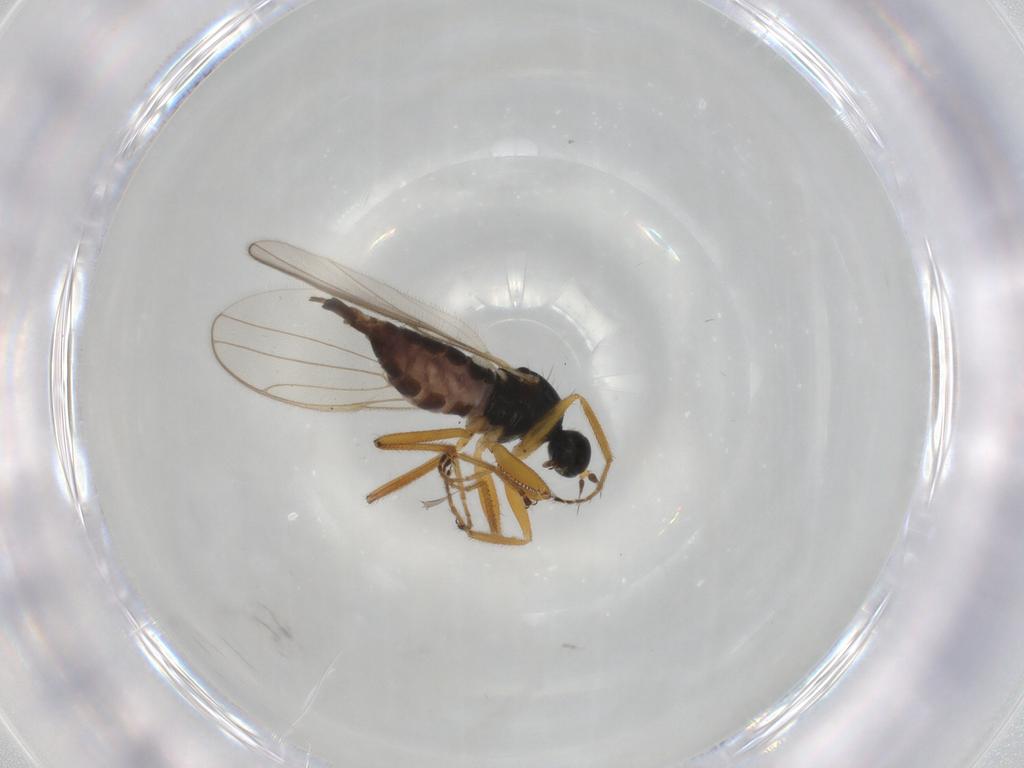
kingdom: Animalia
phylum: Arthropoda
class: Insecta
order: Diptera
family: Hybotidae
